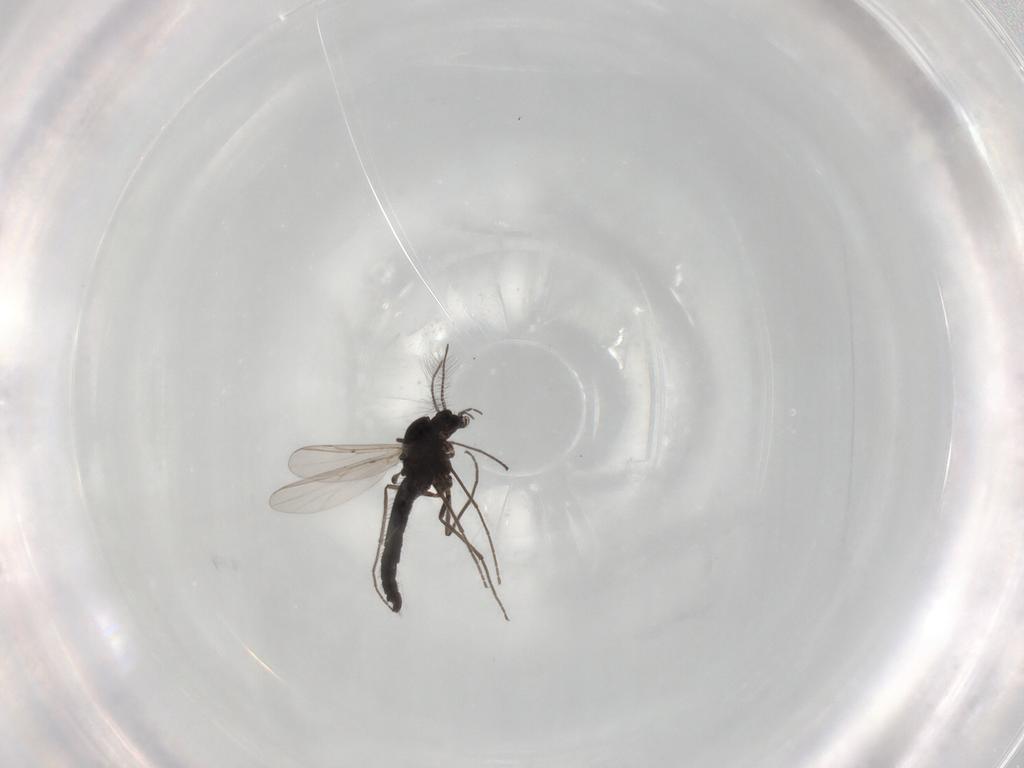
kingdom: Animalia
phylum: Arthropoda
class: Insecta
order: Diptera
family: Chironomidae
